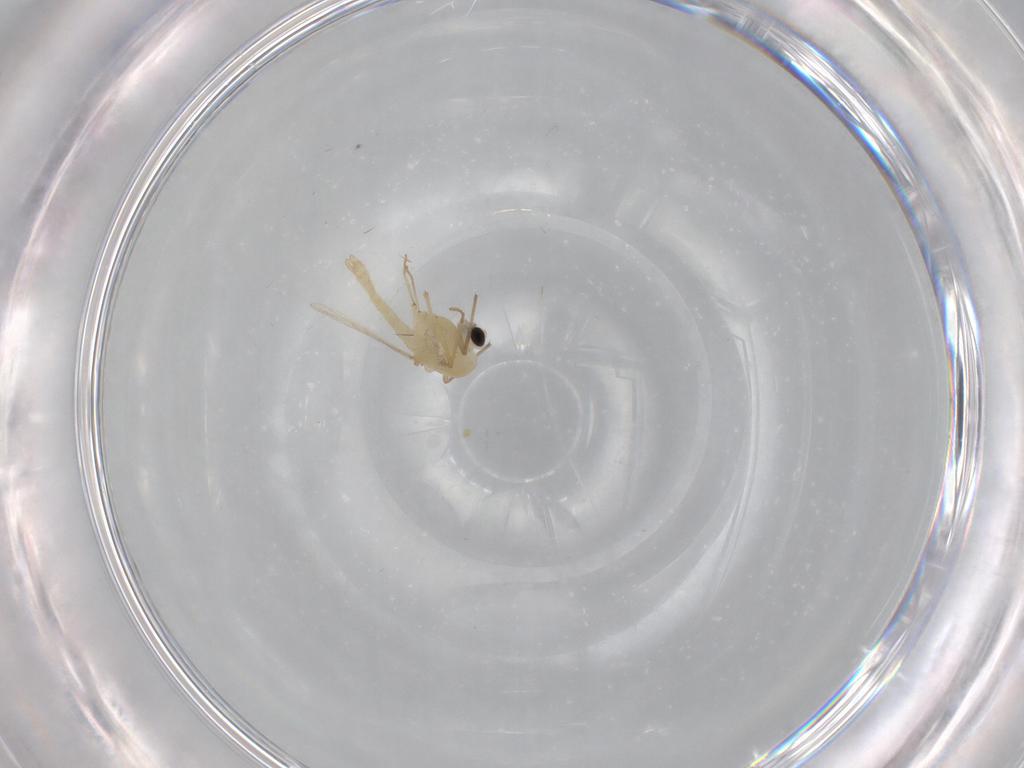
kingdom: Animalia
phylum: Arthropoda
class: Insecta
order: Diptera
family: Chironomidae
